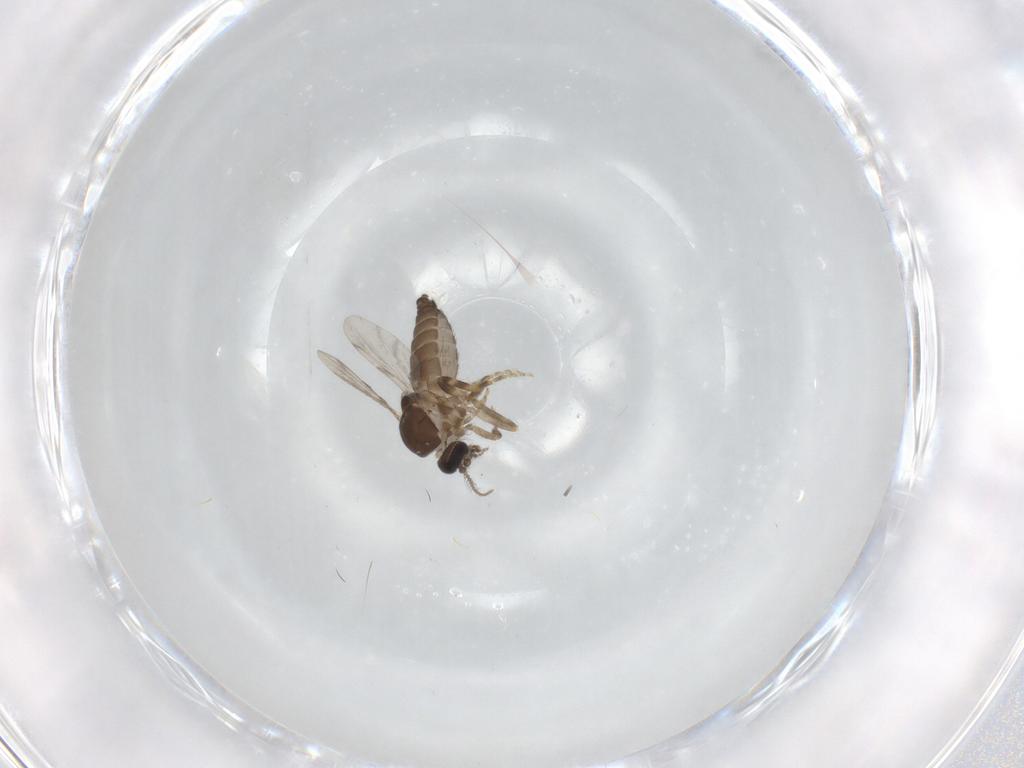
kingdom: Animalia
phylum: Arthropoda
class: Insecta
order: Diptera
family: Ceratopogonidae
